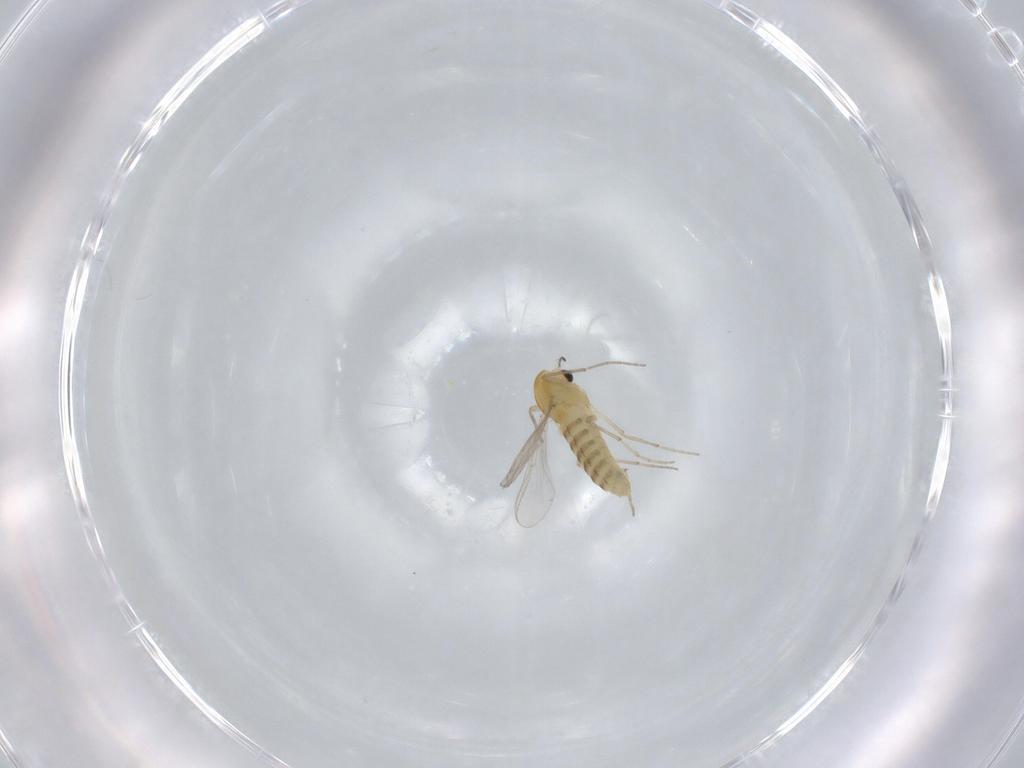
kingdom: Animalia
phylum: Arthropoda
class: Insecta
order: Diptera
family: Chironomidae
